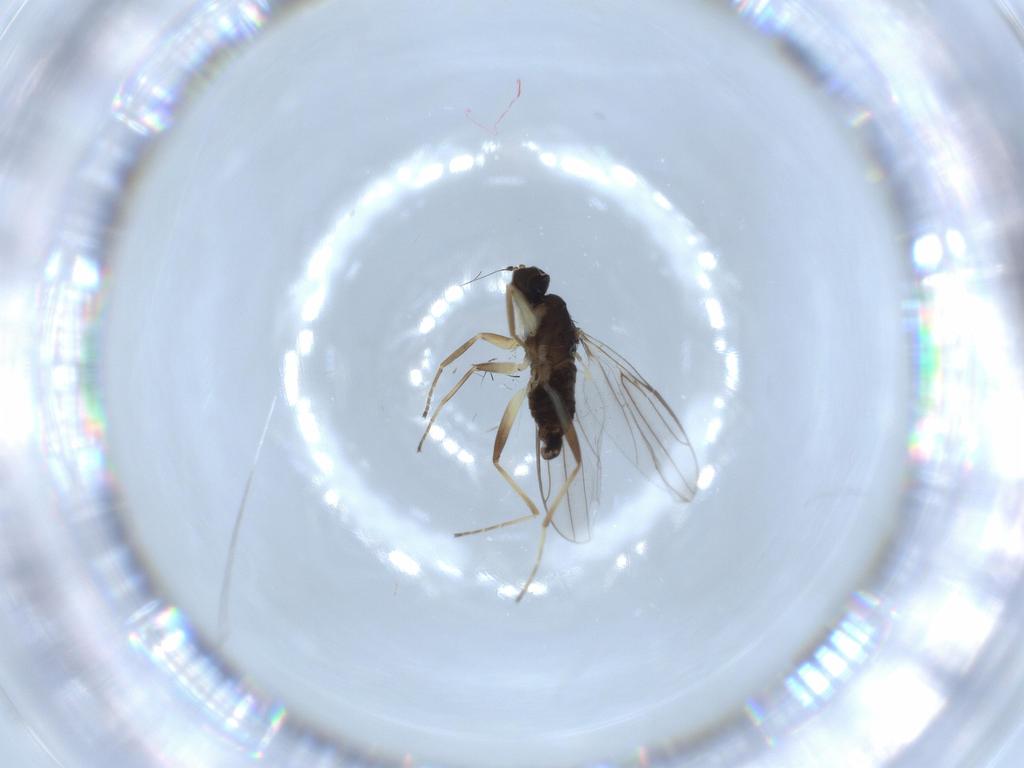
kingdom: Animalia
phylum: Arthropoda
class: Insecta
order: Diptera
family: Hybotidae
